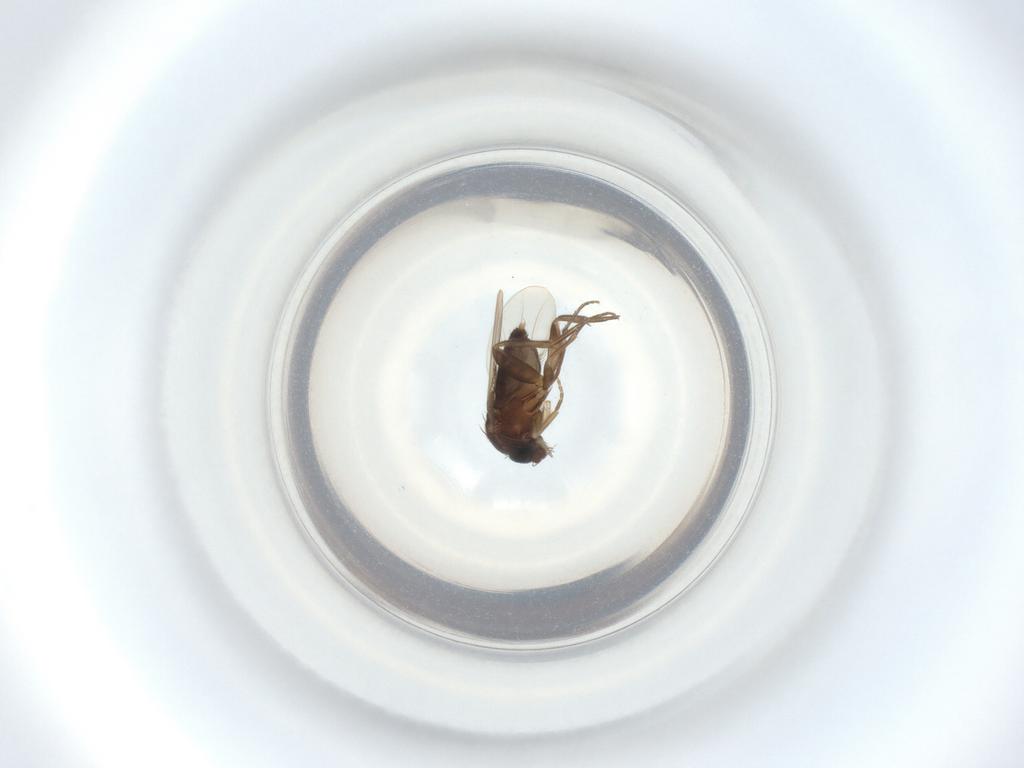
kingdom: Animalia
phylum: Arthropoda
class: Insecta
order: Diptera
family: Phoridae
